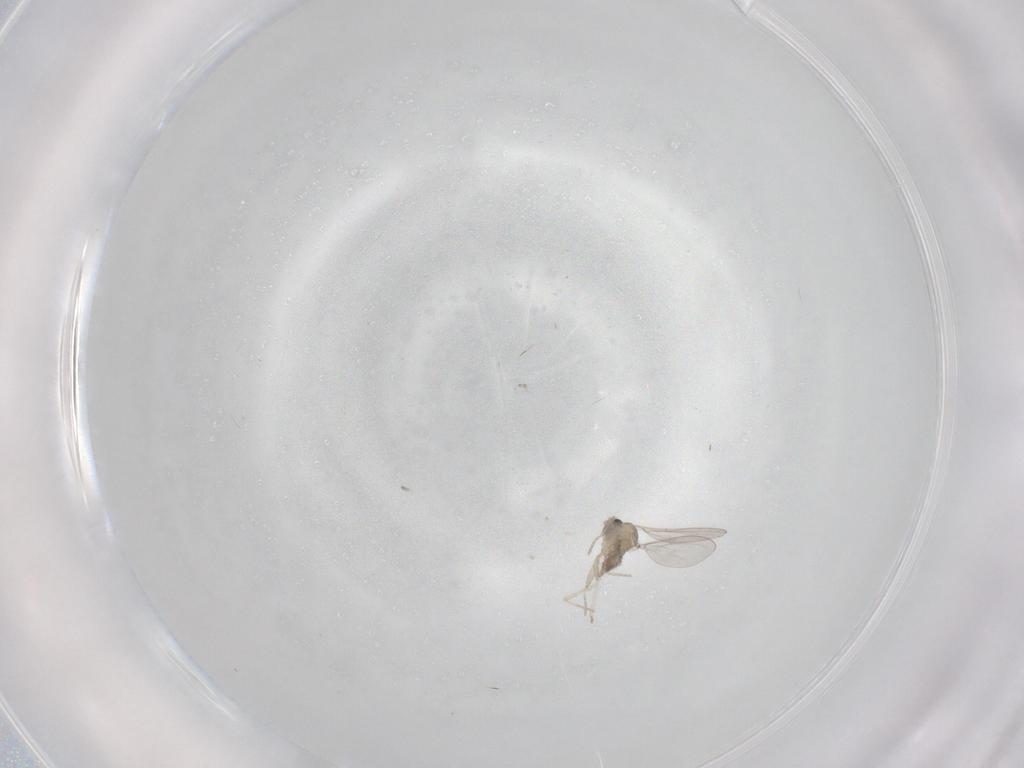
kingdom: Animalia
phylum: Arthropoda
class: Insecta
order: Diptera
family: Cecidomyiidae
